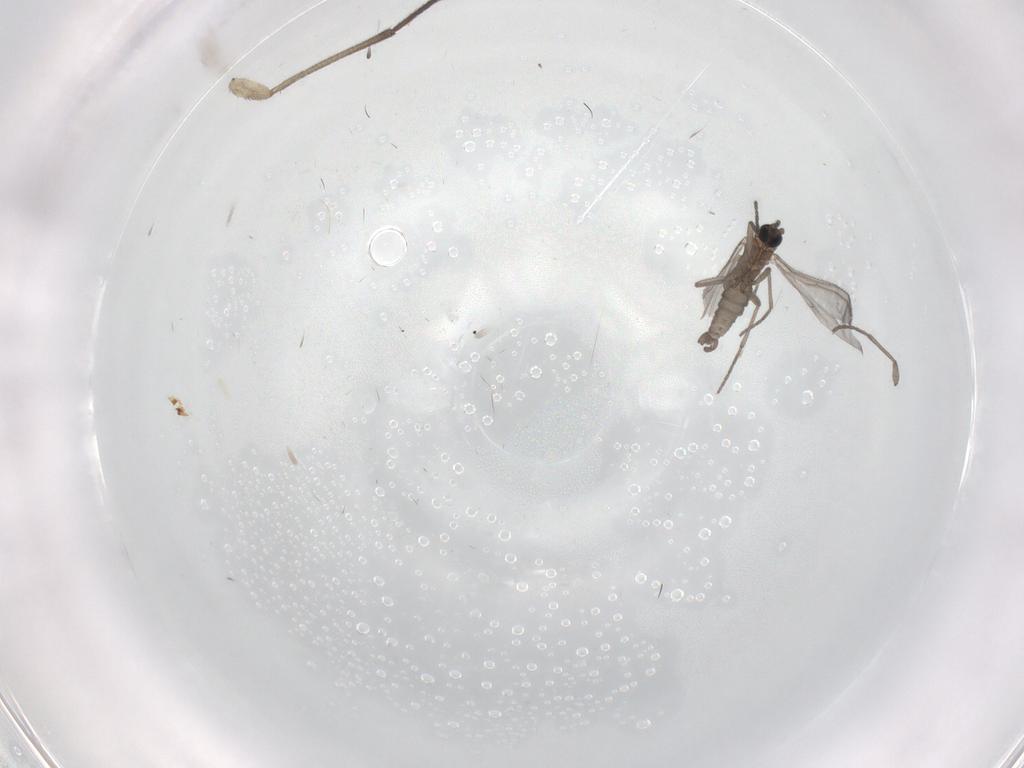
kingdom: Animalia
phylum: Arthropoda
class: Insecta
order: Diptera
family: Sciaridae
